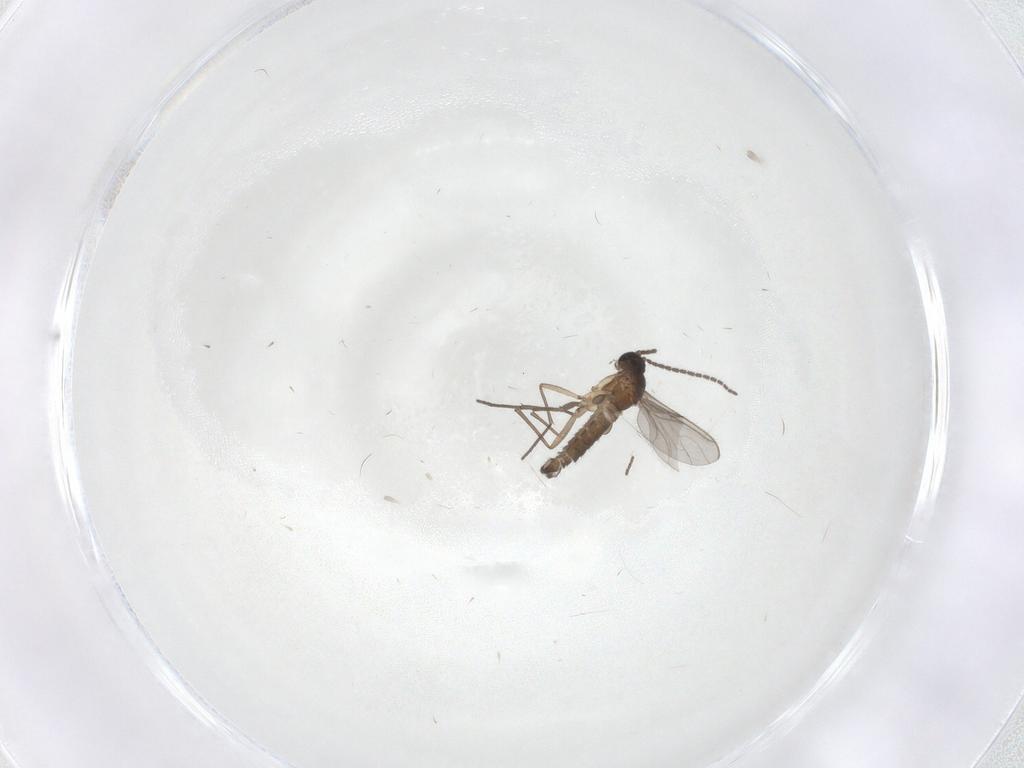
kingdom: Animalia
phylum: Arthropoda
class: Insecta
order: Diptera
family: Sciaridae
